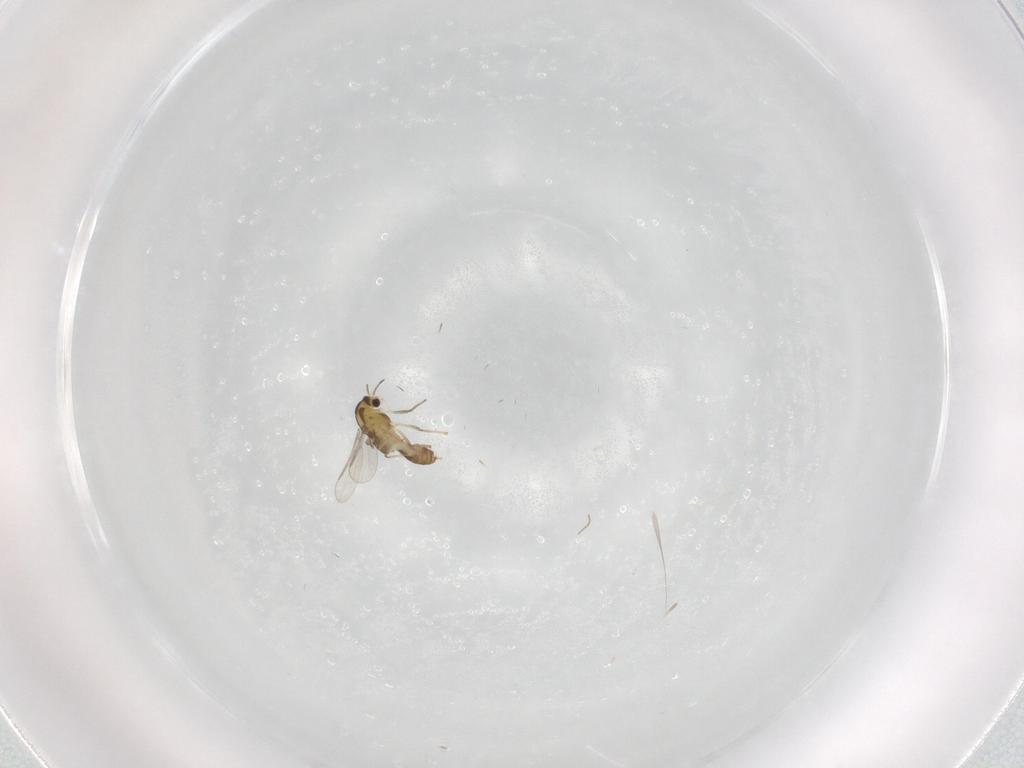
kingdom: Animalia
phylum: Arthropoda
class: Insecta
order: Diptera
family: Chironomidae
